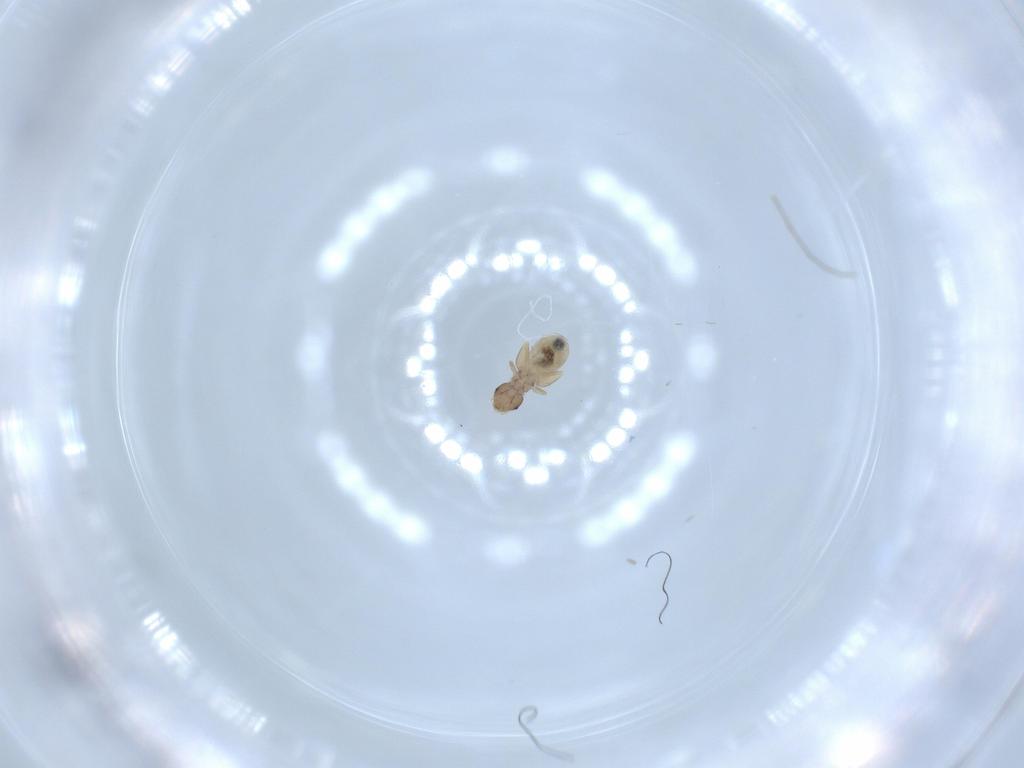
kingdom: Animalia
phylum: Arthropoda
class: Insecta
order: Psocodea
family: Lachesillidae
